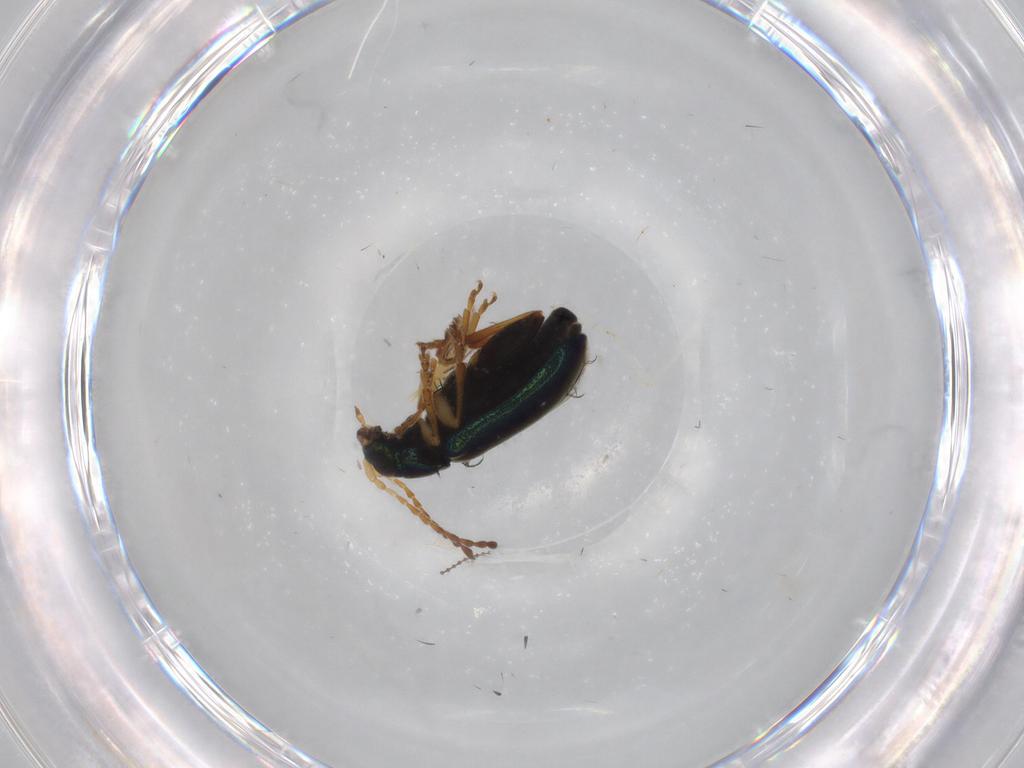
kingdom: Animalia
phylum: Arthropoda
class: Insecta
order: Coleoptera
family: Chrysomelidae
